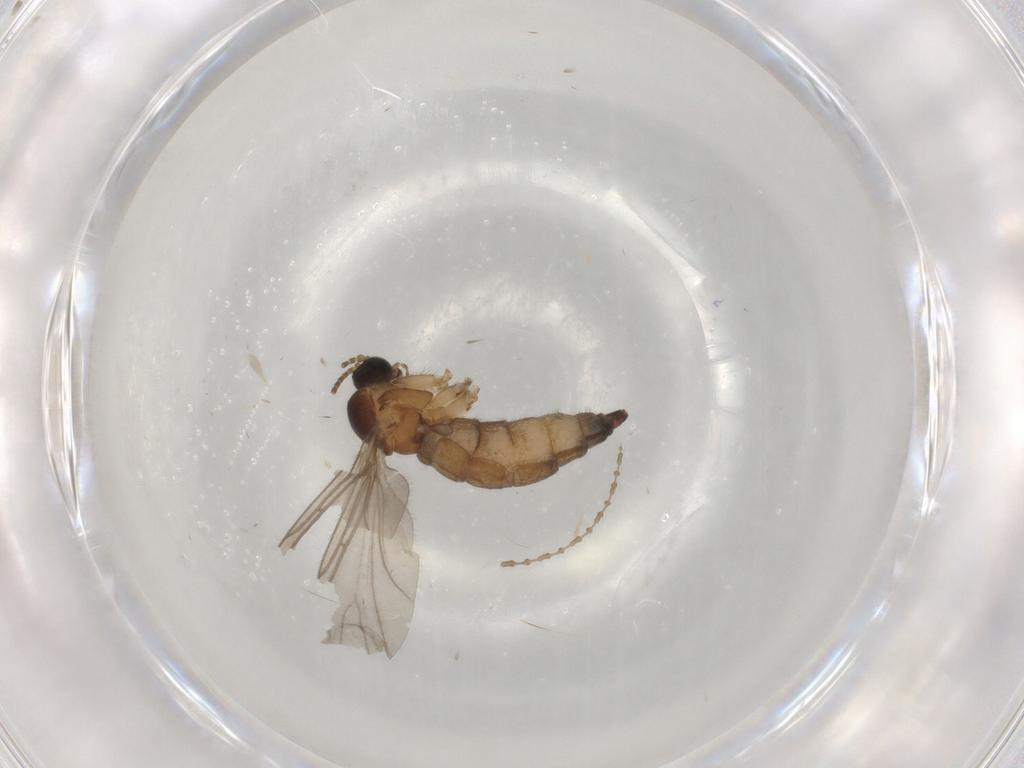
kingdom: Animalia
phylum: Arthropoda
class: Insecta
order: Diptera
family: Sciaridae
